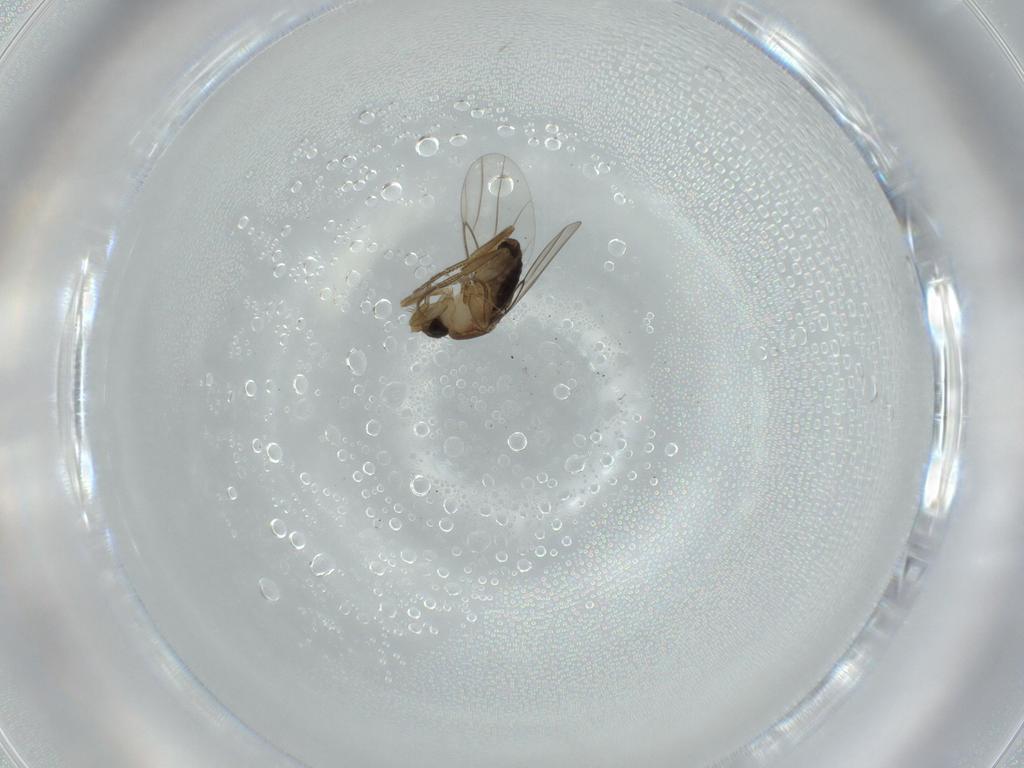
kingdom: Animalia
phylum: Arthropoda
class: Insecta
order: Diptera
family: Phoridae
